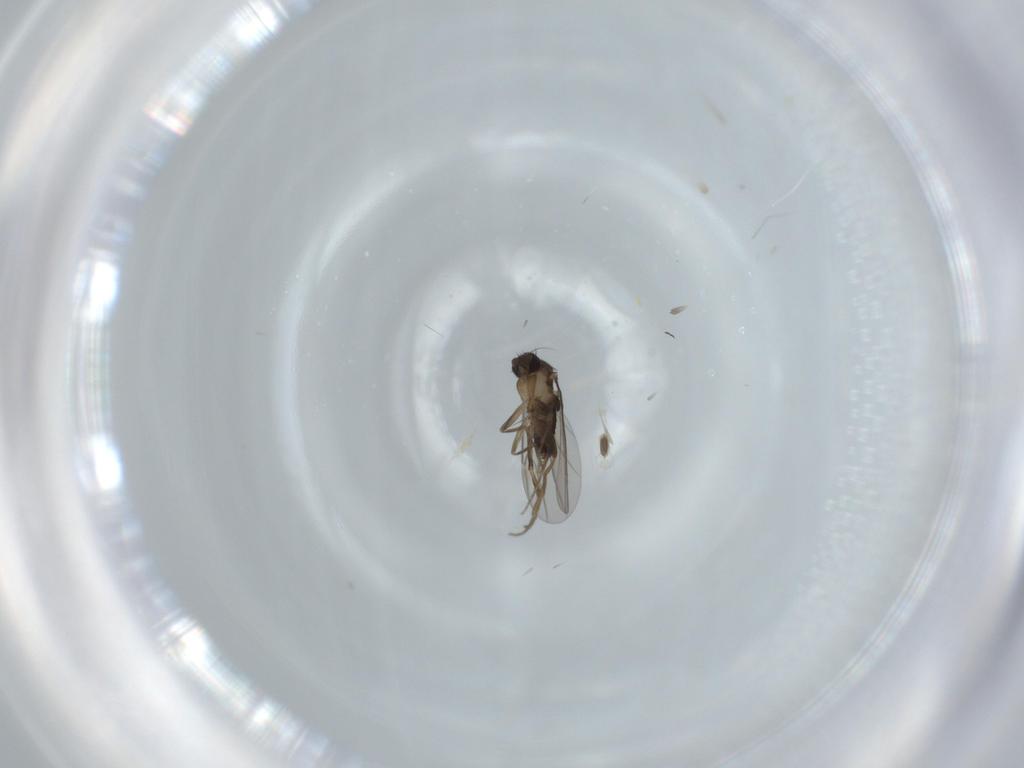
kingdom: Animalia
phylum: Arthropoda
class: Insecta
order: Diptera
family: Phoridae
